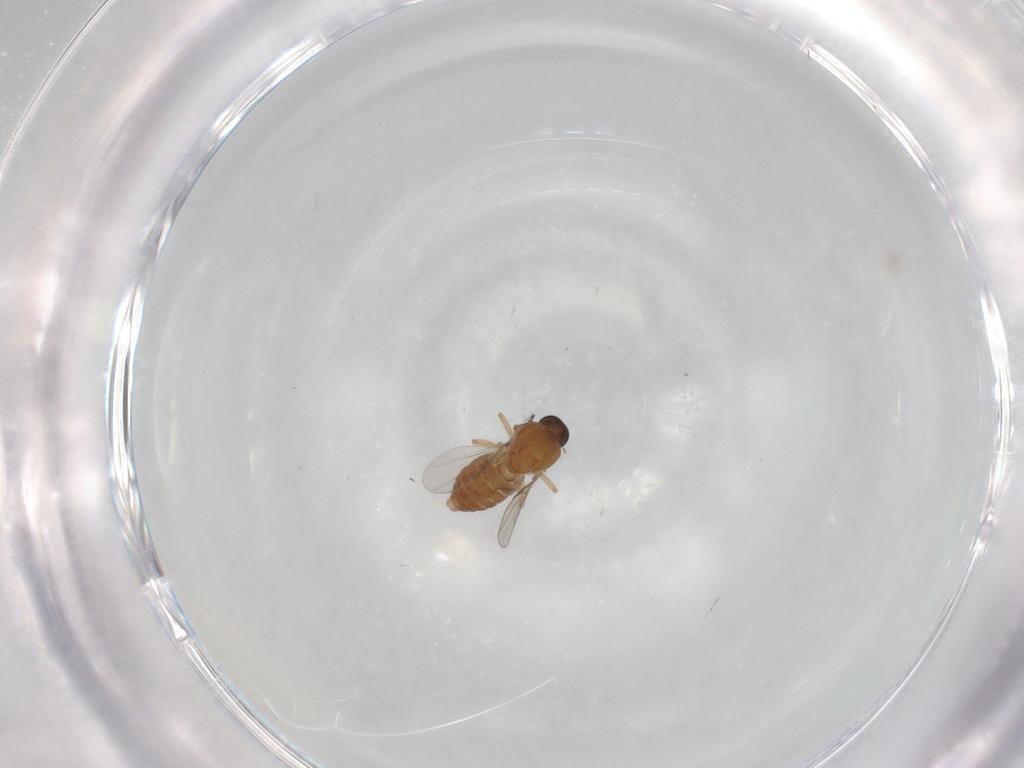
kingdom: Animalia
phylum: Arthropoda
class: Insecta
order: Diptera
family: Ceratopogonidae
